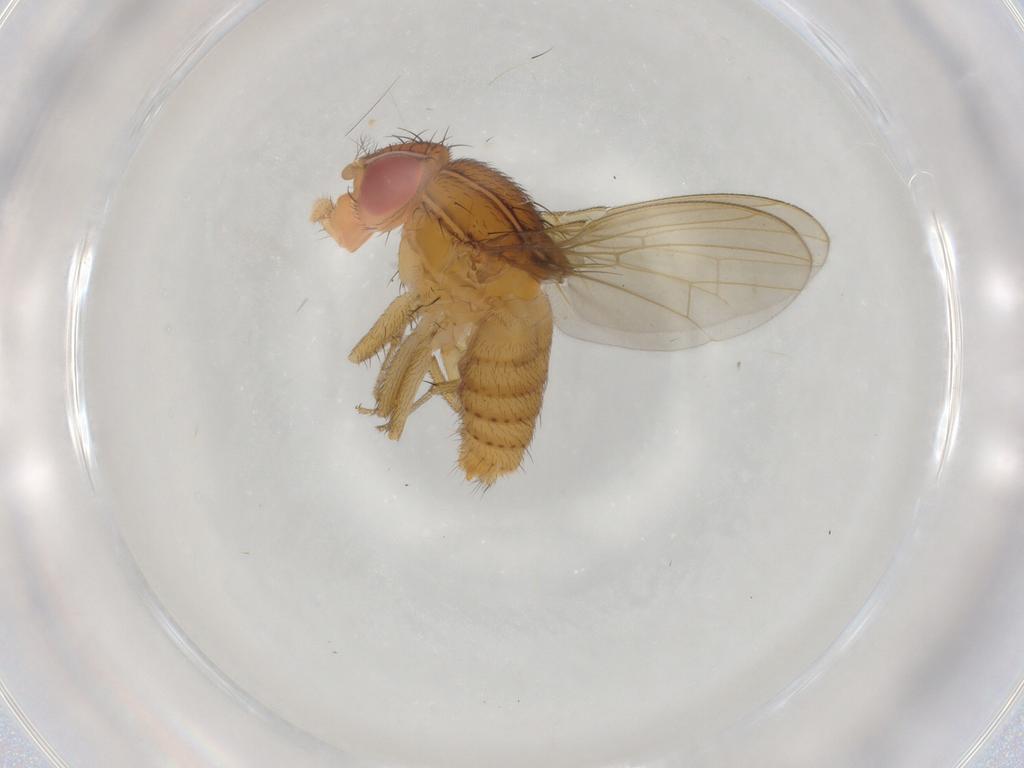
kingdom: Animalia
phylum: Arthropoda
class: Insecta
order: Diptera
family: Drosophilidae
